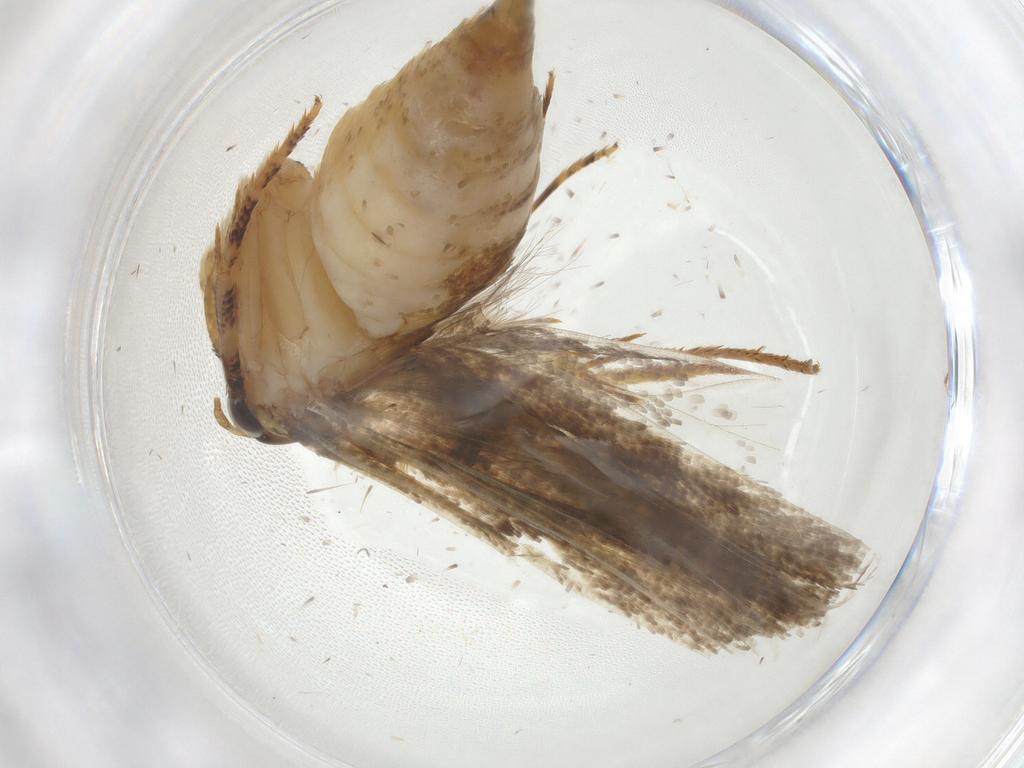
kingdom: Animalia
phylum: Arthropoda
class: Insecta
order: Lepidoptera
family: Gelechiidae
